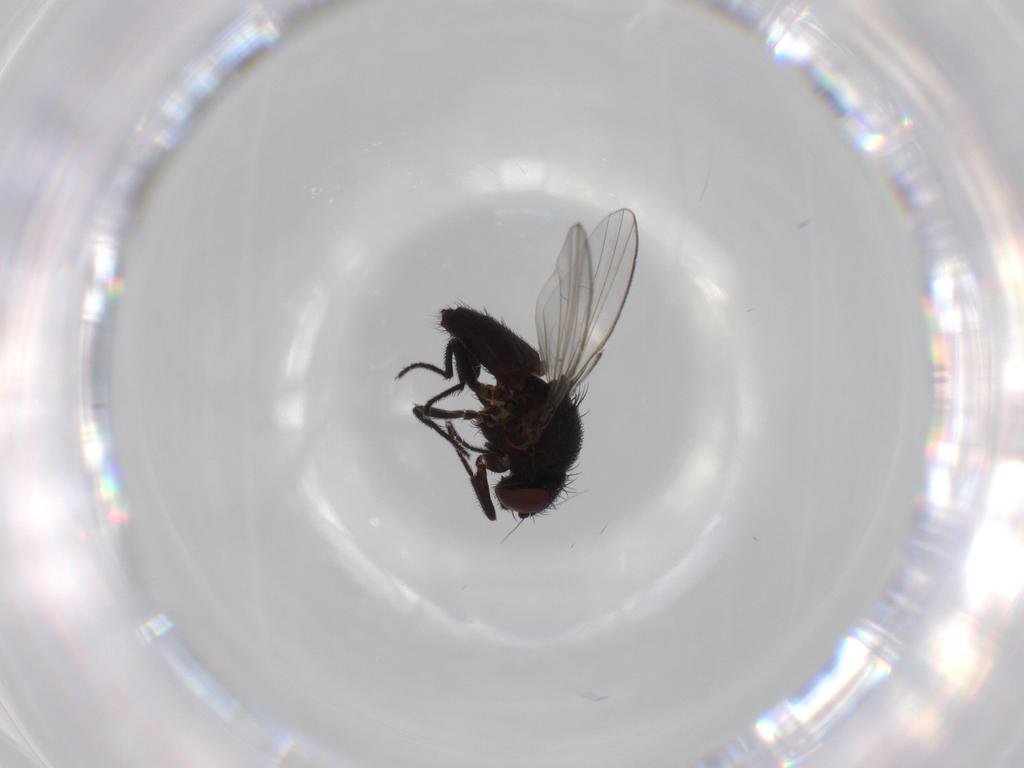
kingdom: Animalia
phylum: Arthropoda
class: Insecta
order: Diptera
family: Milichiidae
